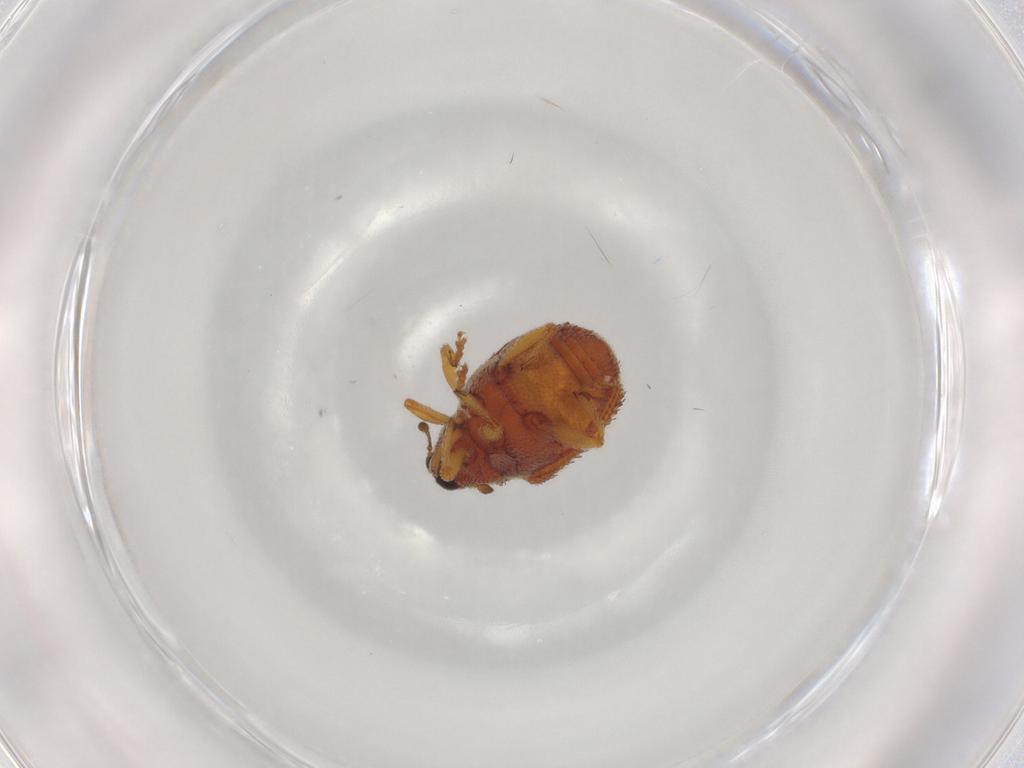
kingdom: Animalia
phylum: Arthropoda
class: Insecta
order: Coleoptera
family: Curculionidae
